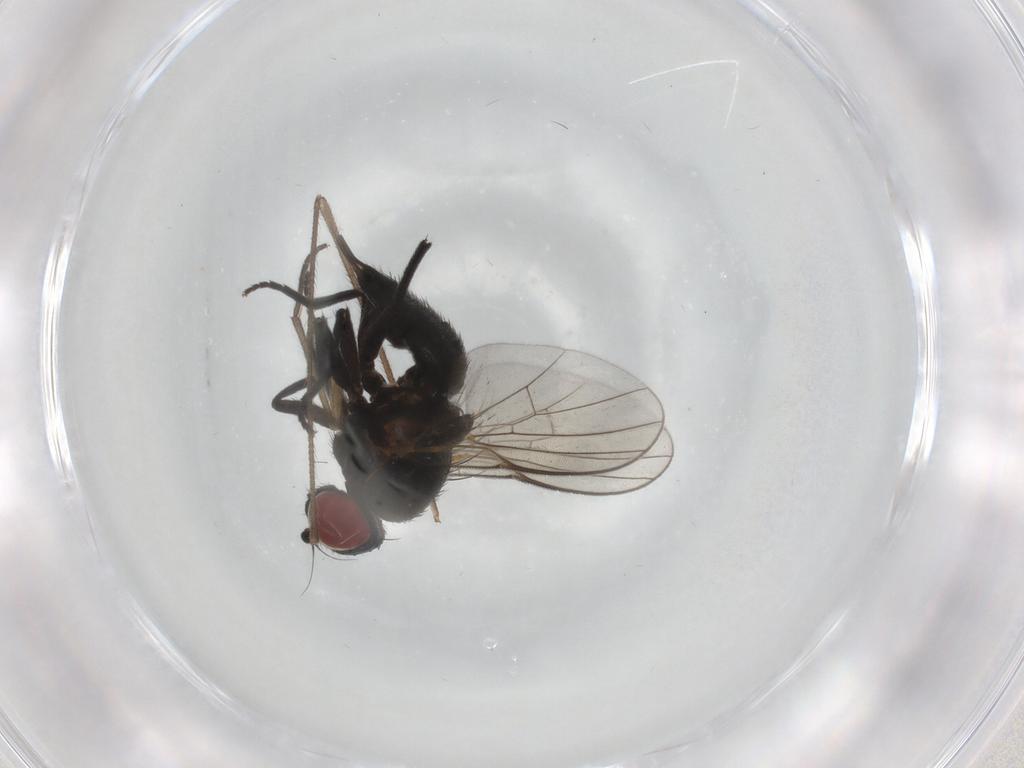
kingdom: Animalia
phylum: Arthropoda
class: Insecta
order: Diptera
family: Agromyzidae
